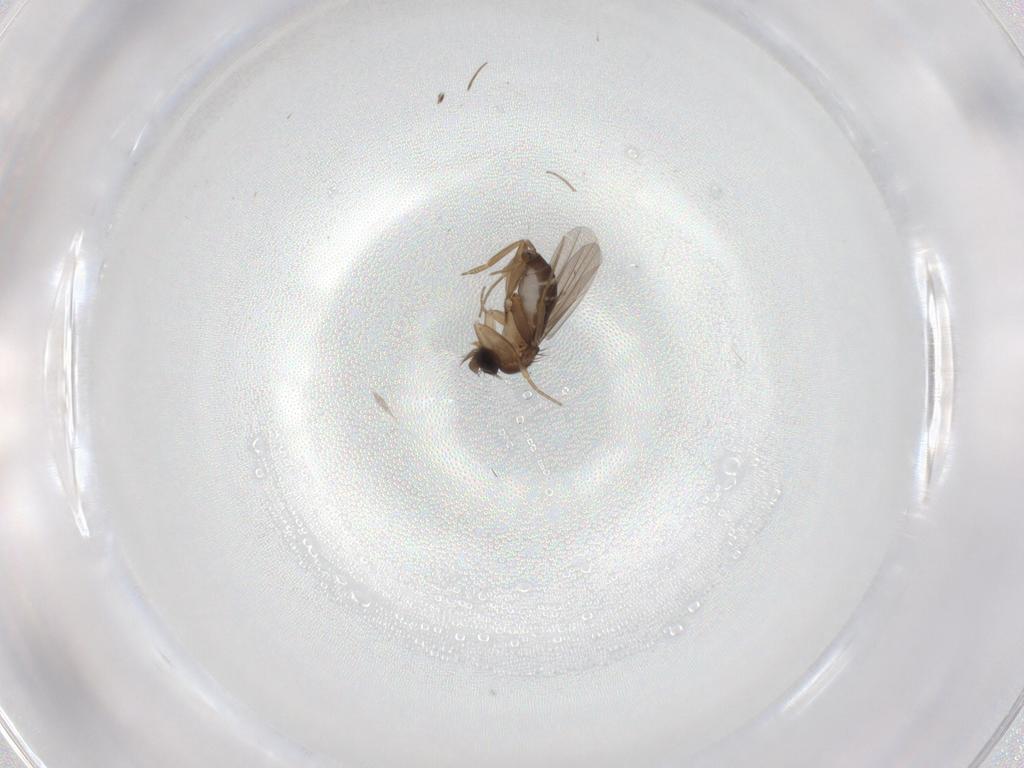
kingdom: Animalia
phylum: Arthropoda
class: Insecta
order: Diptera
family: Phoridae
